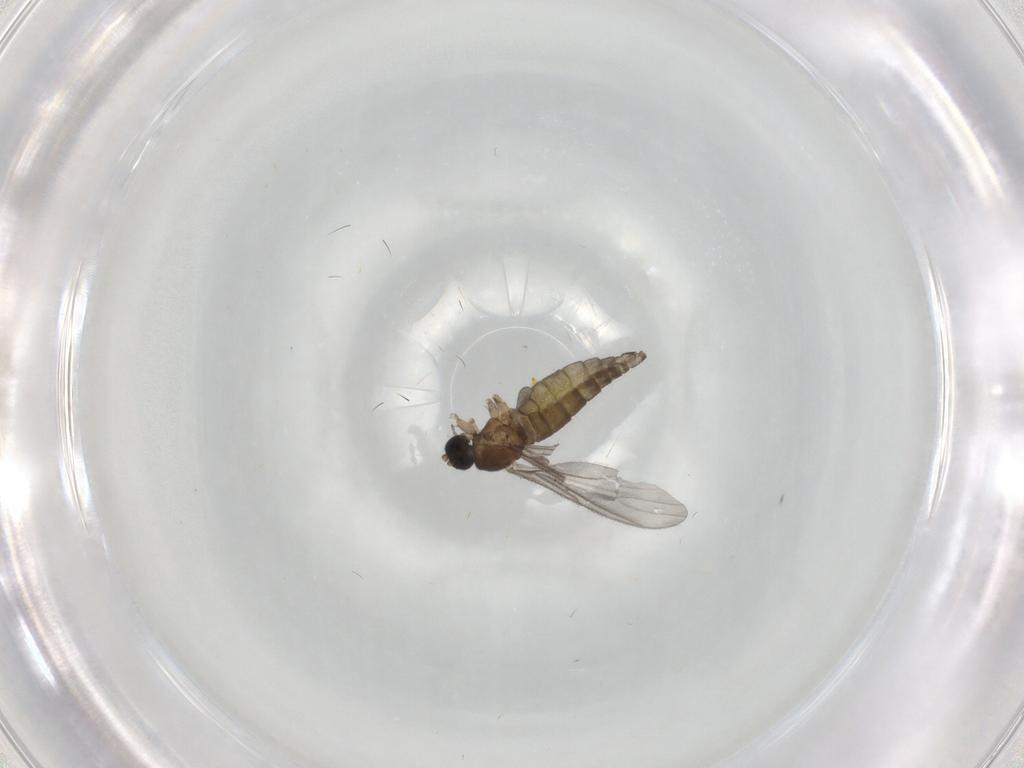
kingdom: Animalia
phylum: Arthropoda
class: Insecta
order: Diptera
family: Sciaridae
